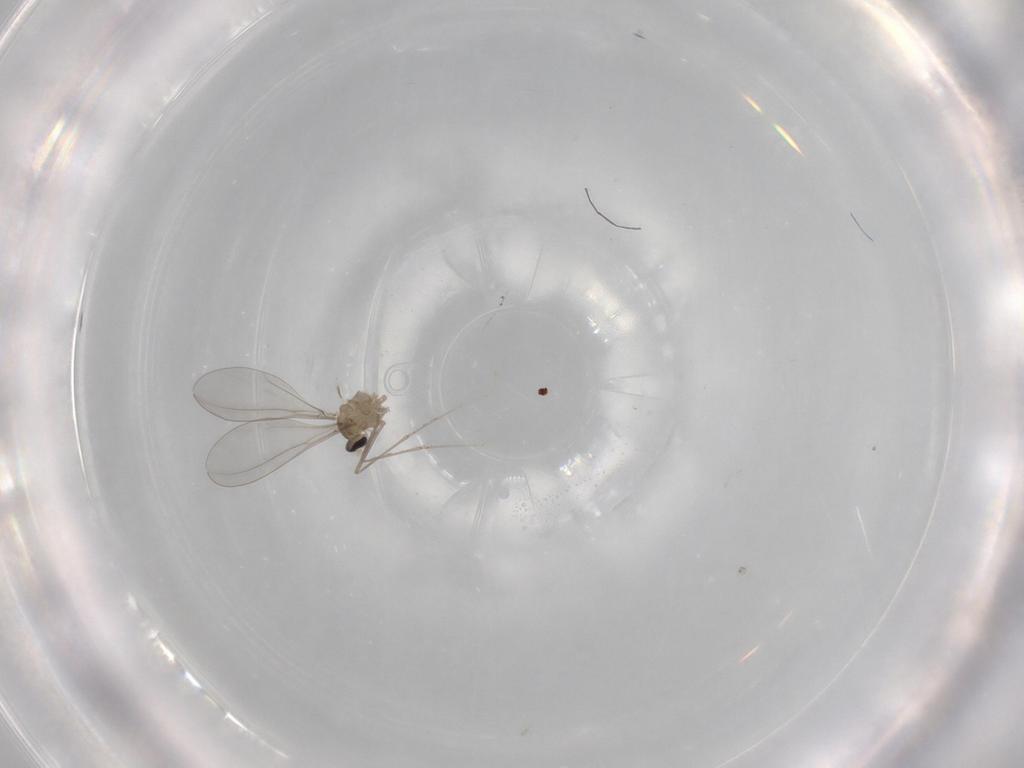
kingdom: Animalia
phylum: Arthropoda
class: Insecta
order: Diptera
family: Cecidomyiidae
